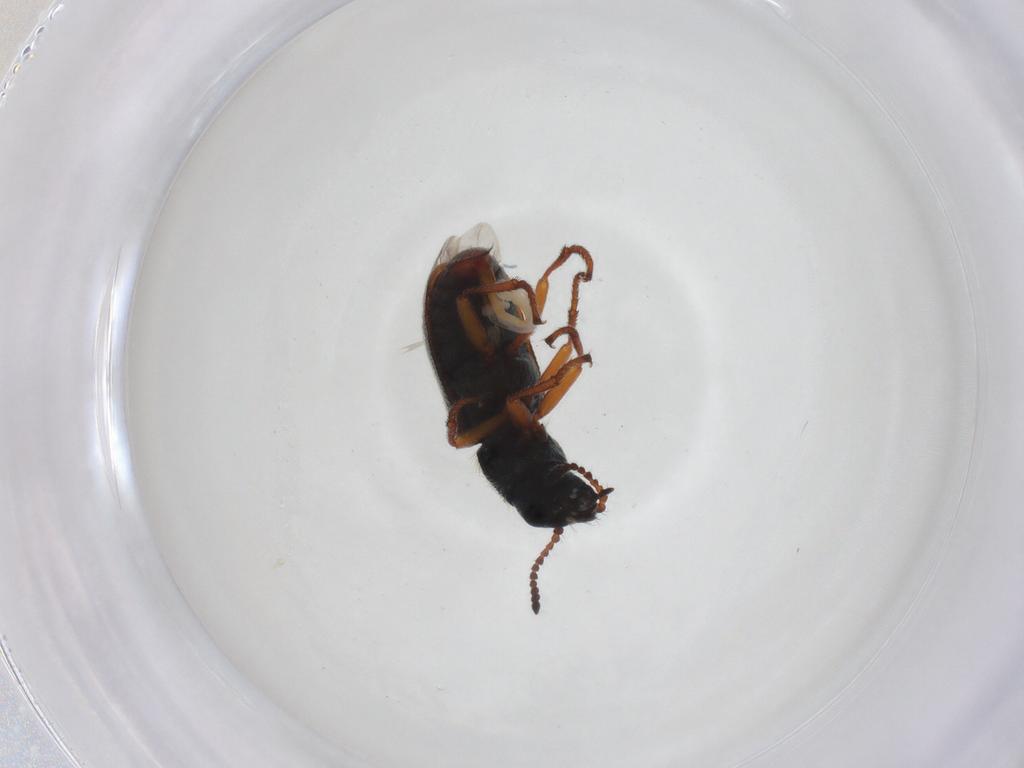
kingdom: Animalia
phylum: Arthropoda
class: Insecta
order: Coleoptera
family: Melyridae
